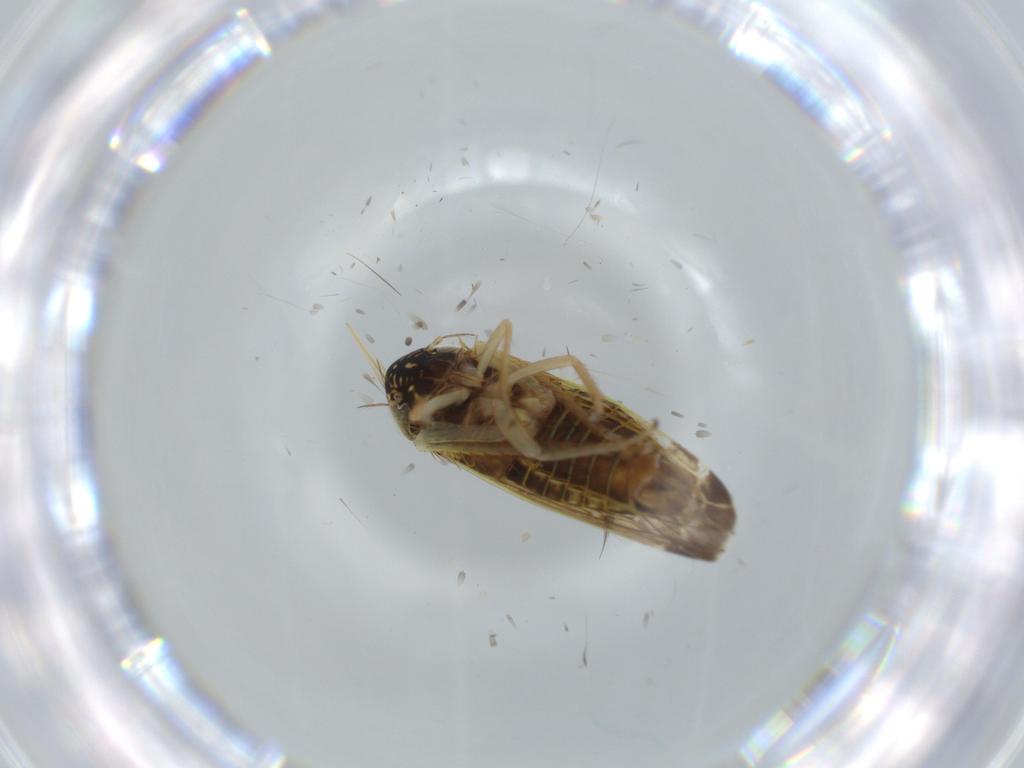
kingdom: Animalia
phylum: Arthropoda
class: Insecta
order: Hemiptera
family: Cicadellidae
